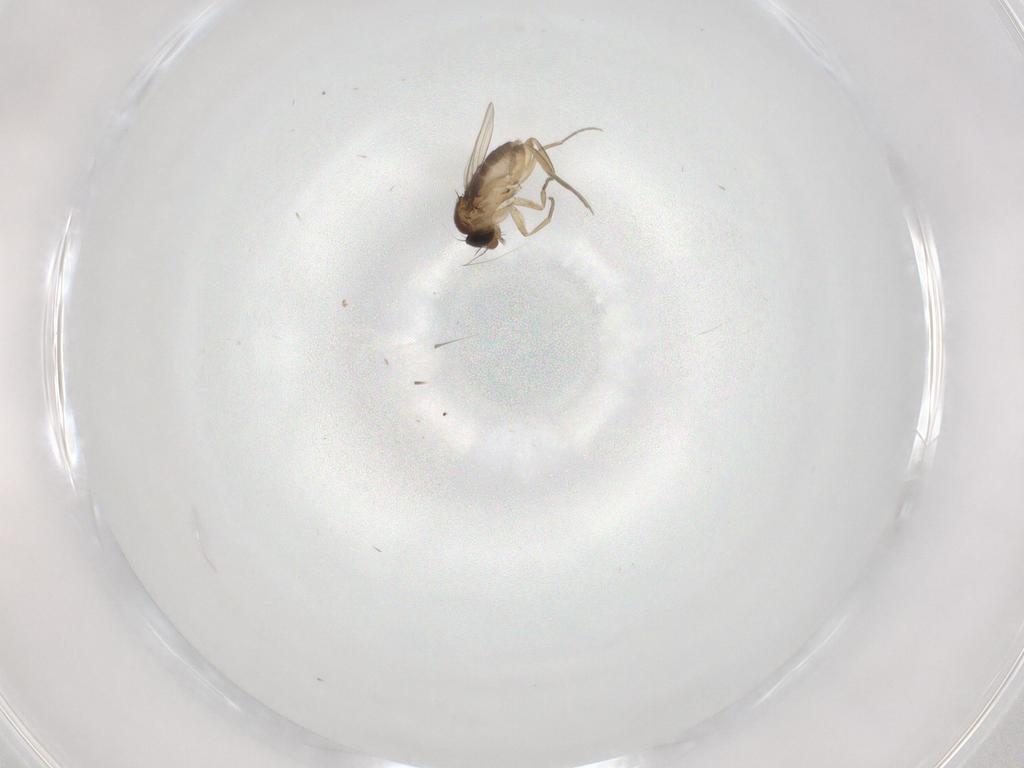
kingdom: Animalia
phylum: Arthropoda
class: Insecta
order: Diptera
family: Phoridae
